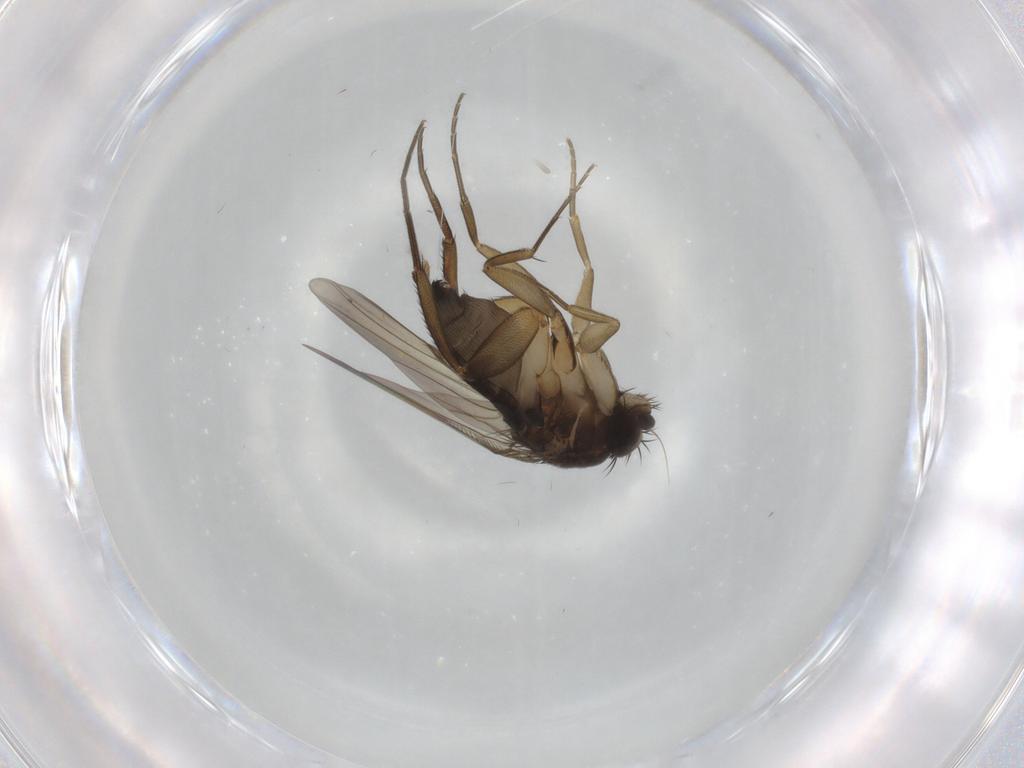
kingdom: Animalia
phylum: Arthropoda
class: Insecta
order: Diptera
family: Phoridae
